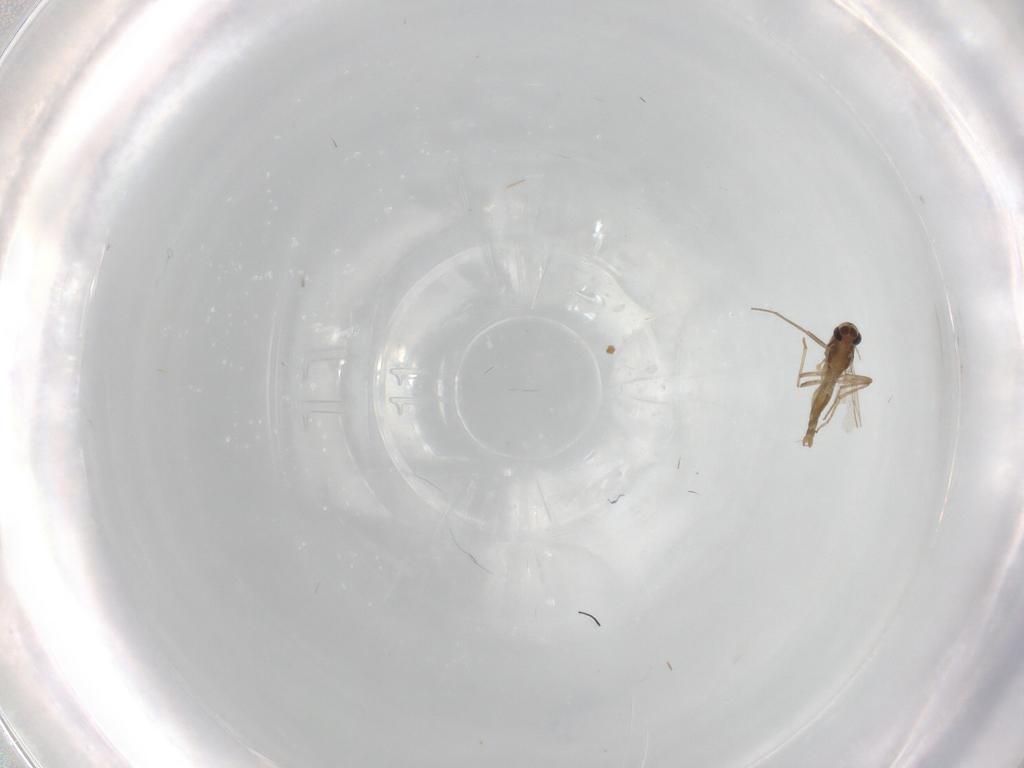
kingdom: Animalia
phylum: Arthropoda
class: Insecta
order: Diptera
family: Chironomidae
